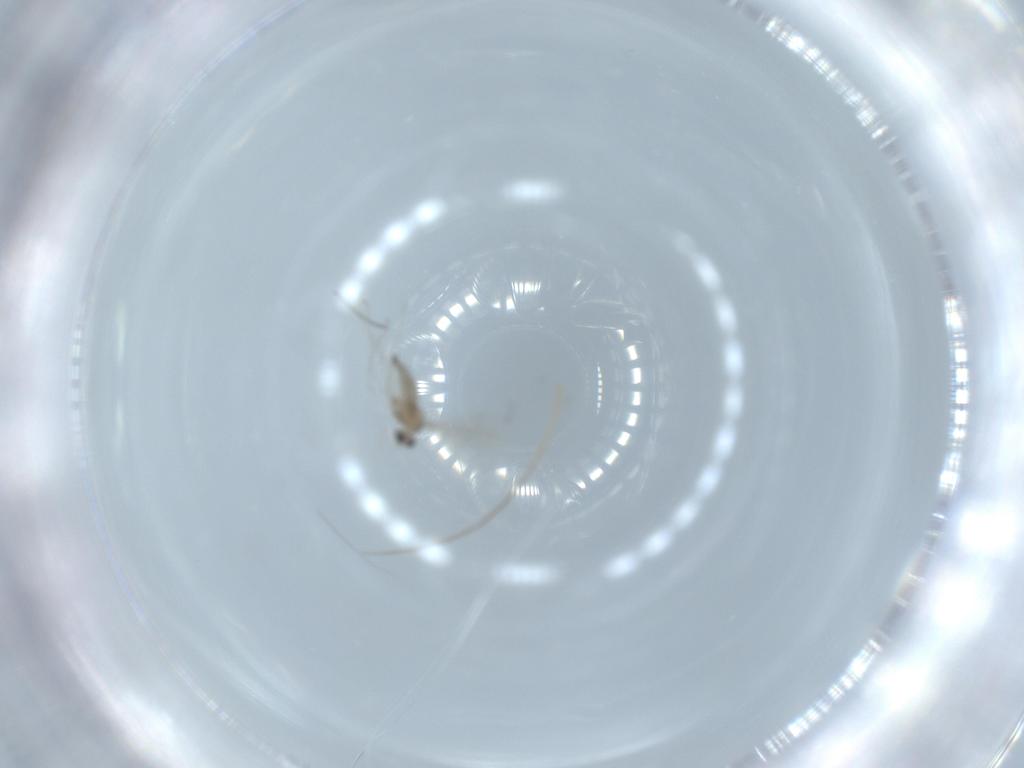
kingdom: Animalia
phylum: Arthropoda
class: Insecta
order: Diptera
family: Cecidomyiidae
